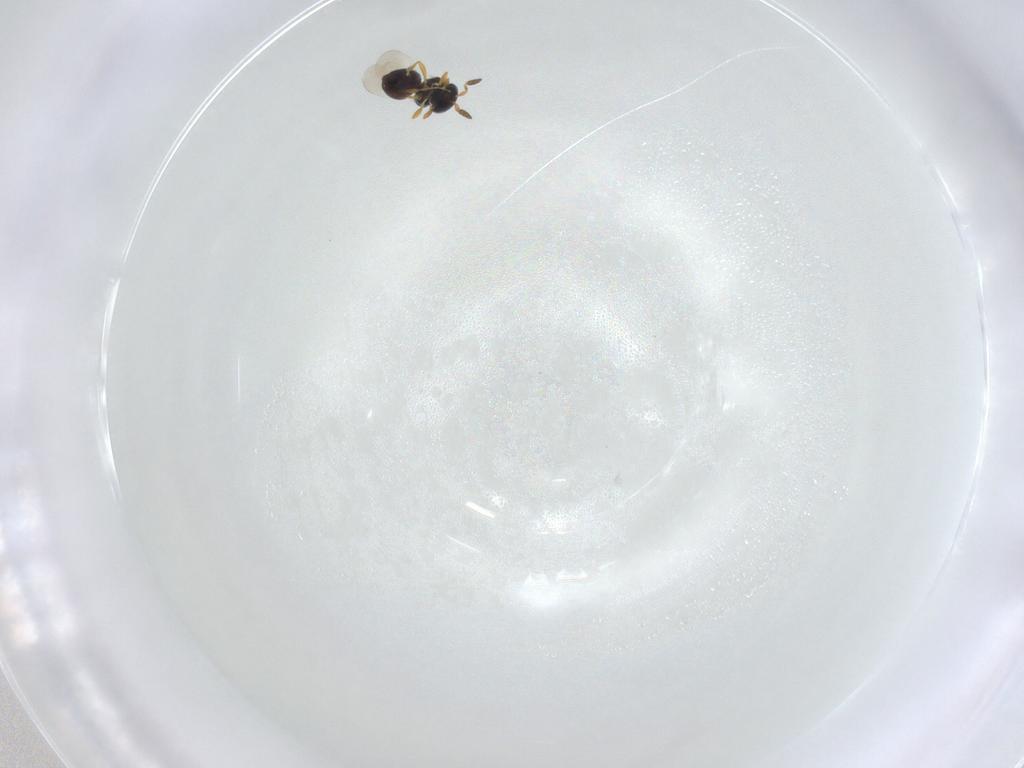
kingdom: Animalia
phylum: Arthropoda
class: Insecta
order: Hymenoptera
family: Platygastridae
